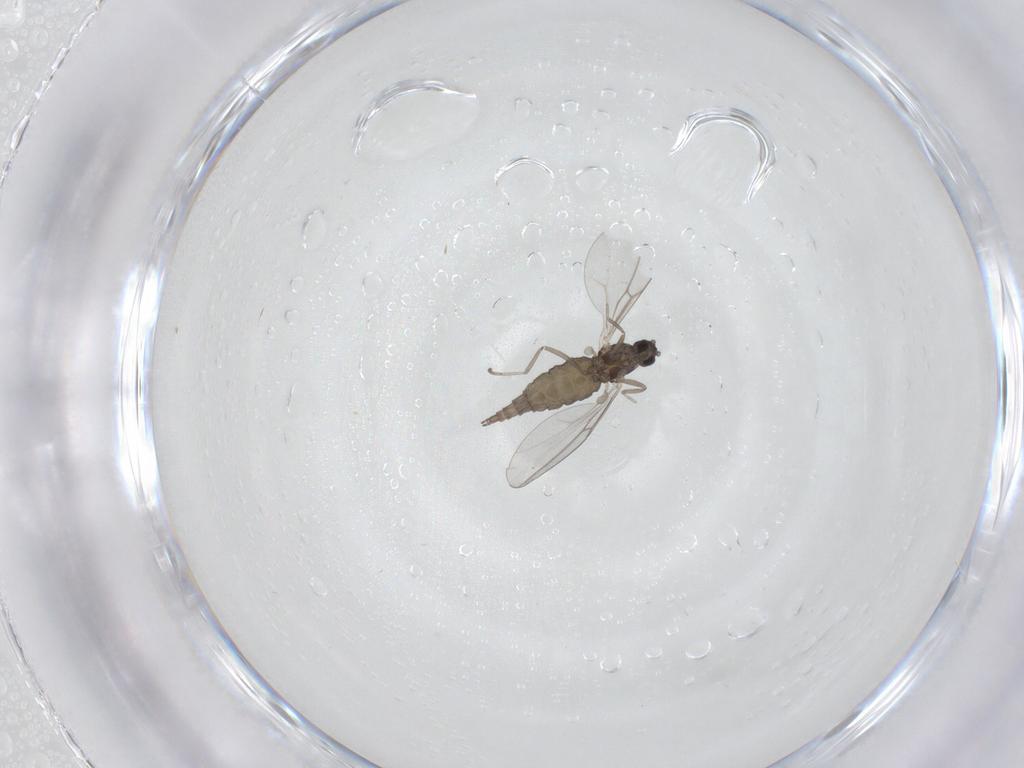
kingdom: Animalia
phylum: Arthropoda
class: Insecta
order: Diptera
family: Cecidomyiidae
